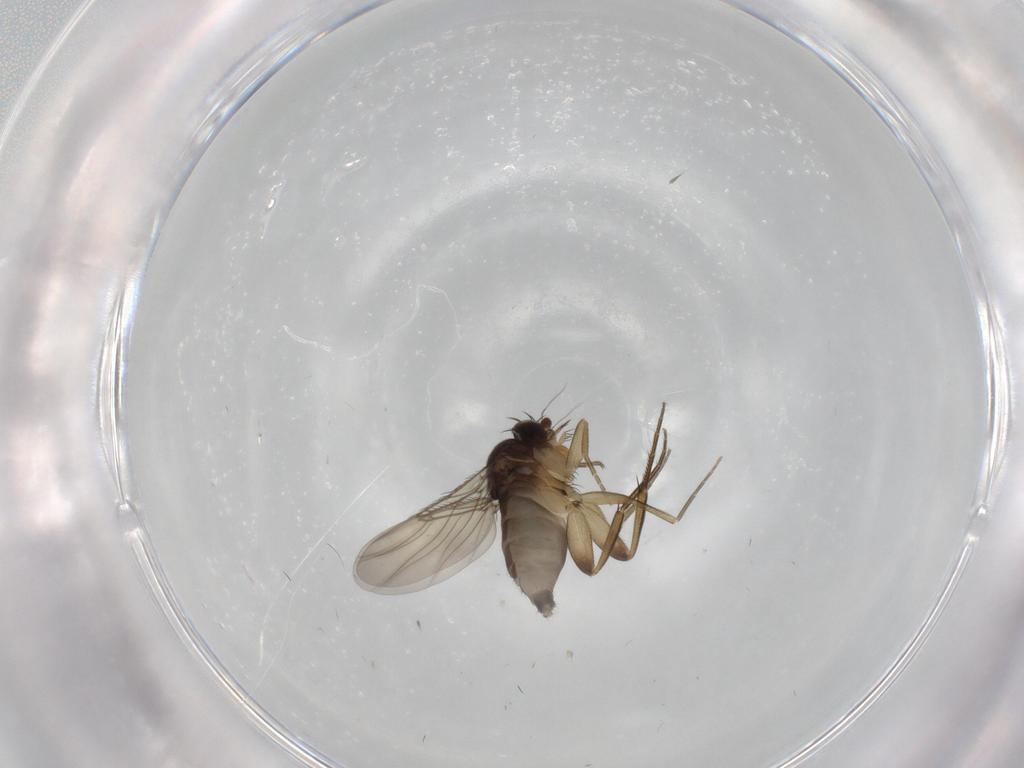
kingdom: Animalia
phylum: Arthropoda
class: Insecta
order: Diptera
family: Phoridae
